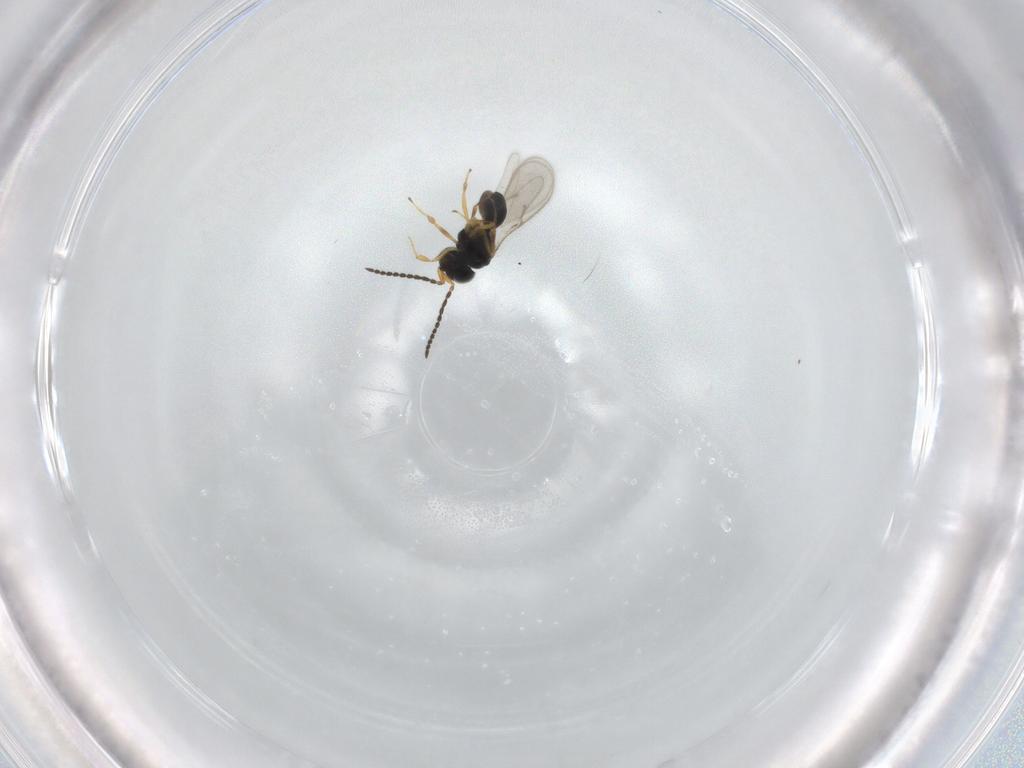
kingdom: Animalia
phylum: Arthropoda
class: Insecta
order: Hymenoptera
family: Scelionidae
